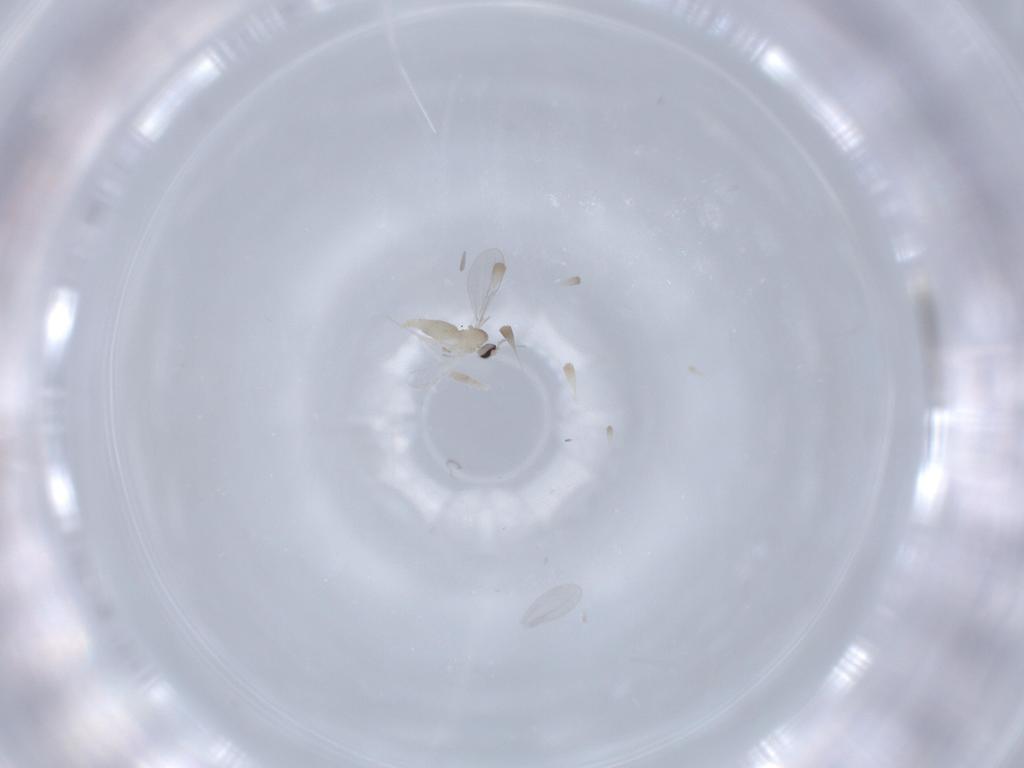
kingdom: Animalia
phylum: Arthropoda
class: Insecta
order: Diptera
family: Cecidomyiidae
